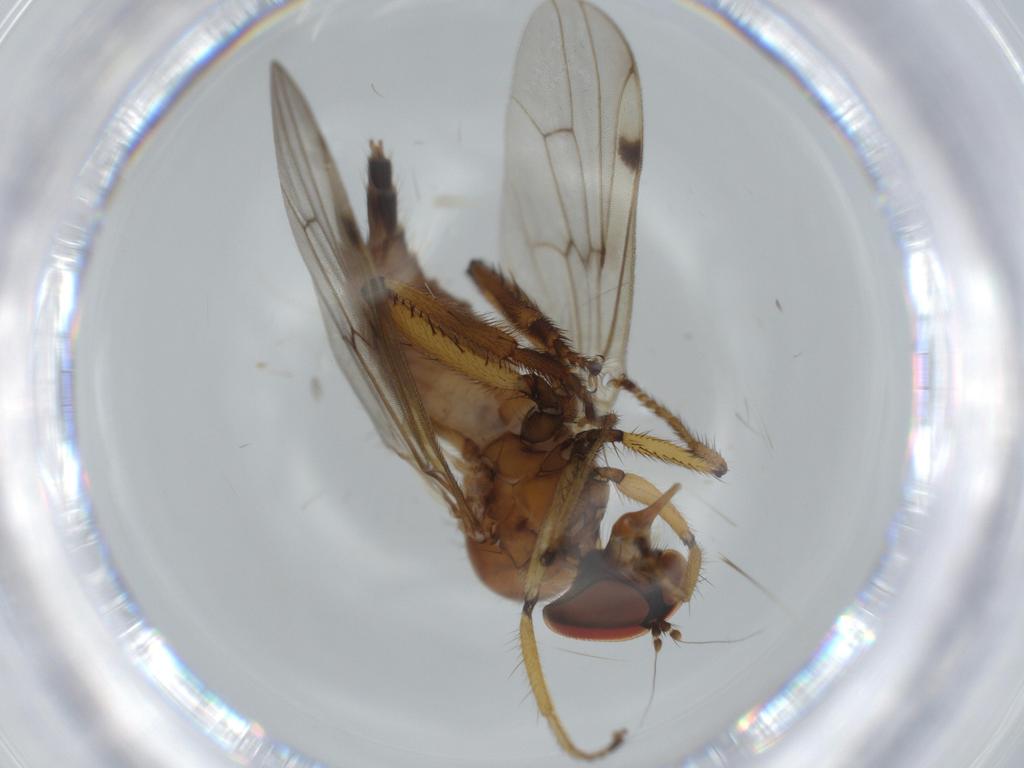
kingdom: Animalia
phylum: Arthropoda
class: Insecta
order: Diptera
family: Hybotidae
